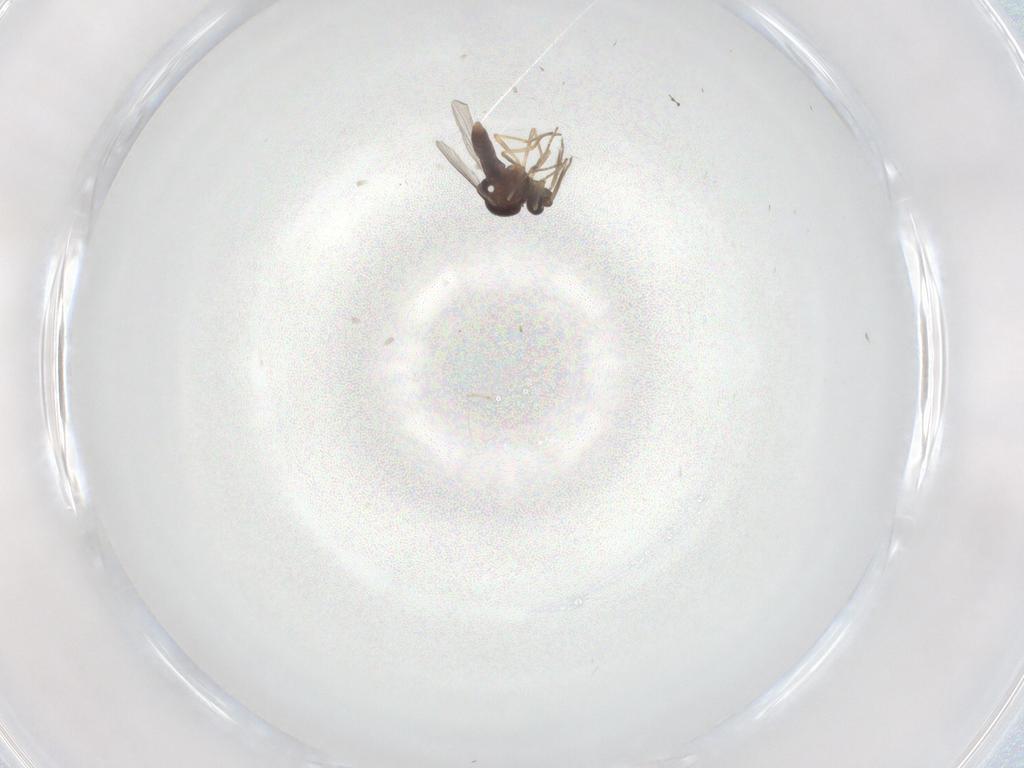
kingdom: Animalia
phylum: Arthropoda
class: Insecta
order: Diptera
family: Ceratopogonidae
